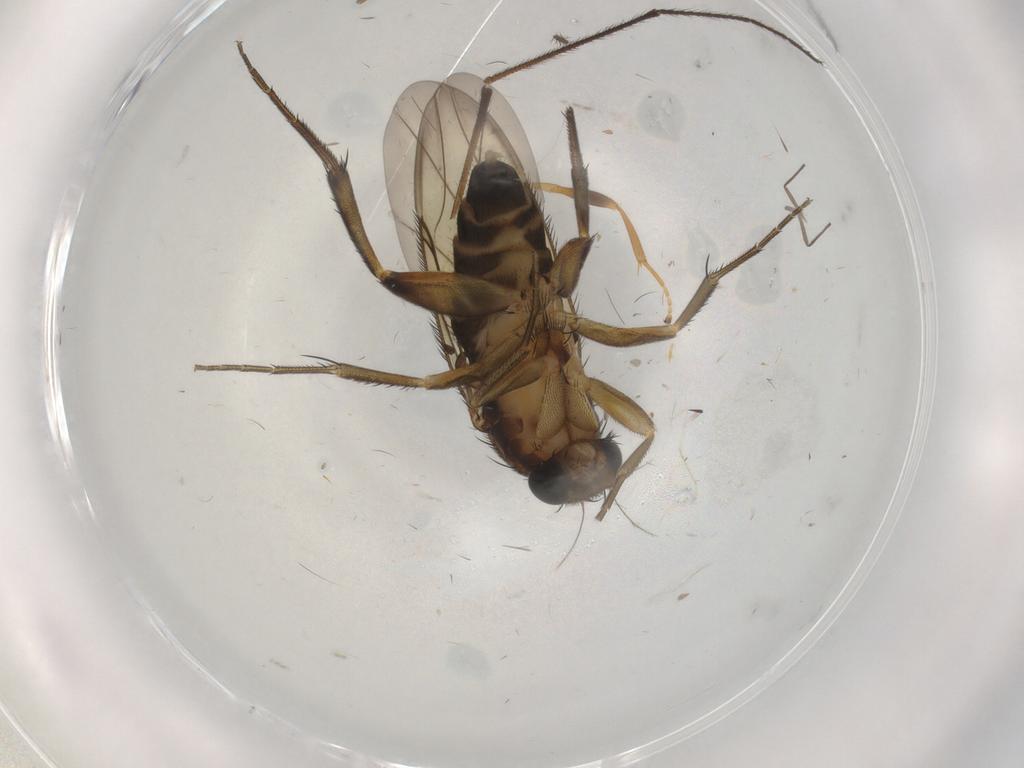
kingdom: Animalia
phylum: Arthropoda
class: Insecta
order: Diptera
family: Muscidae
